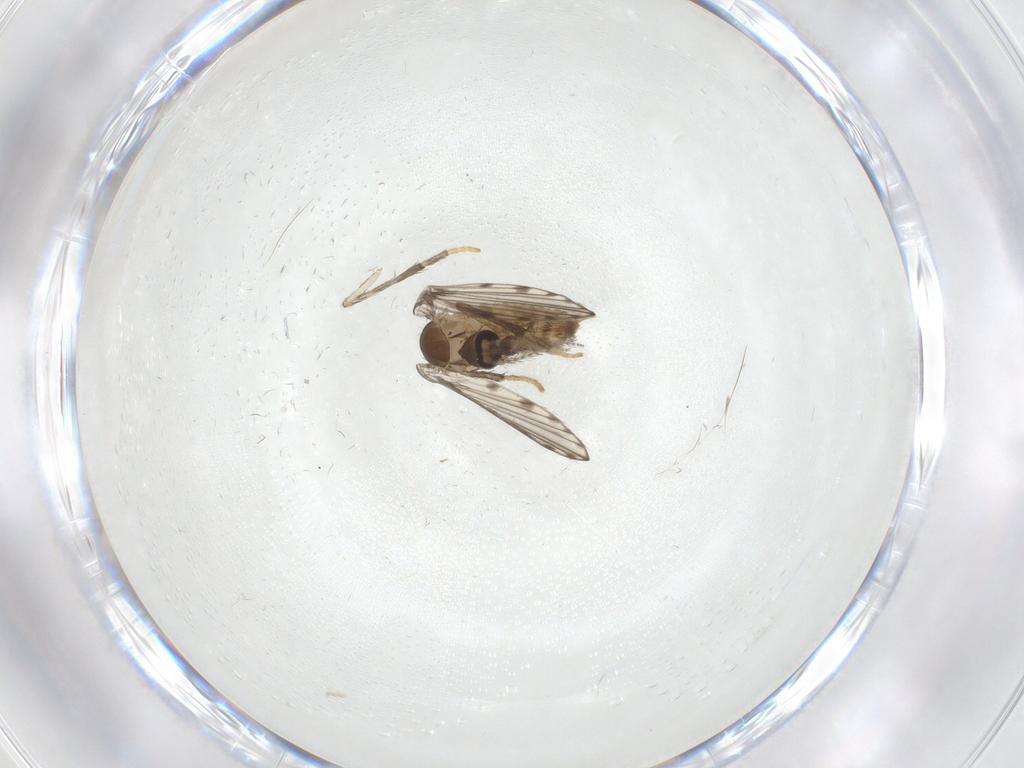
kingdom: Animalia
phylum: Arthropoda
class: Insecta
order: Diptera
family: Psychodidae
